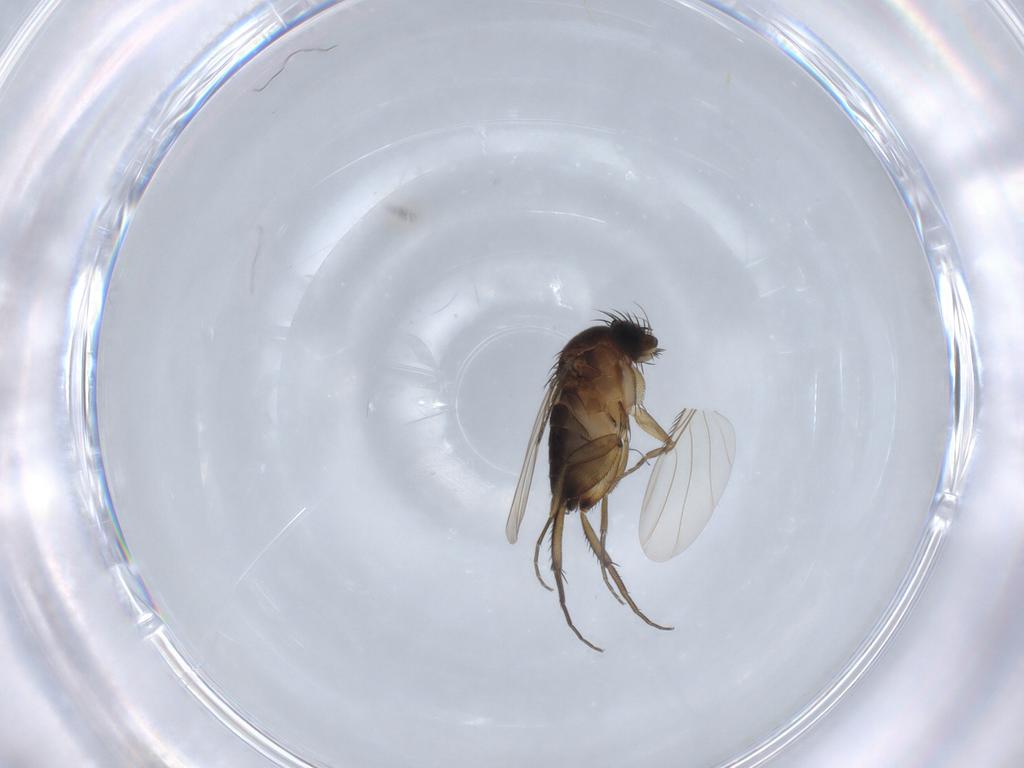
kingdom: Animalia
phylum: Arthropoda
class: Insecta
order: Diptera
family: Phoridae
